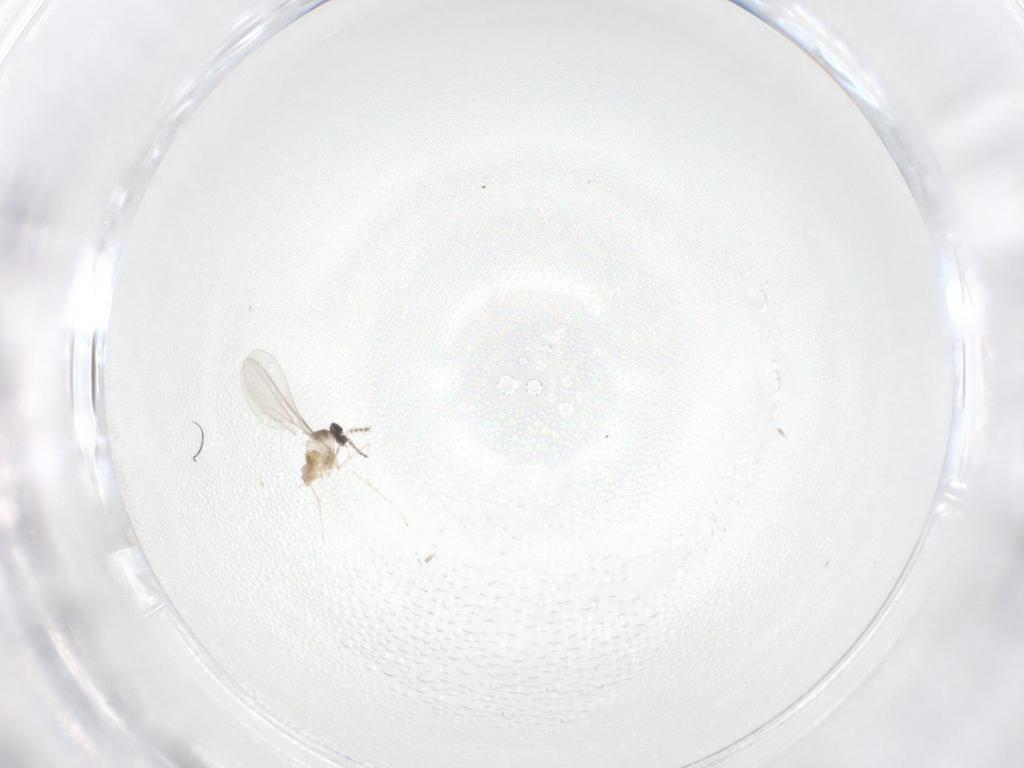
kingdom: Animalia
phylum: Arthropoda
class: Insecta
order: Diptera
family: Cecidomyiidae
